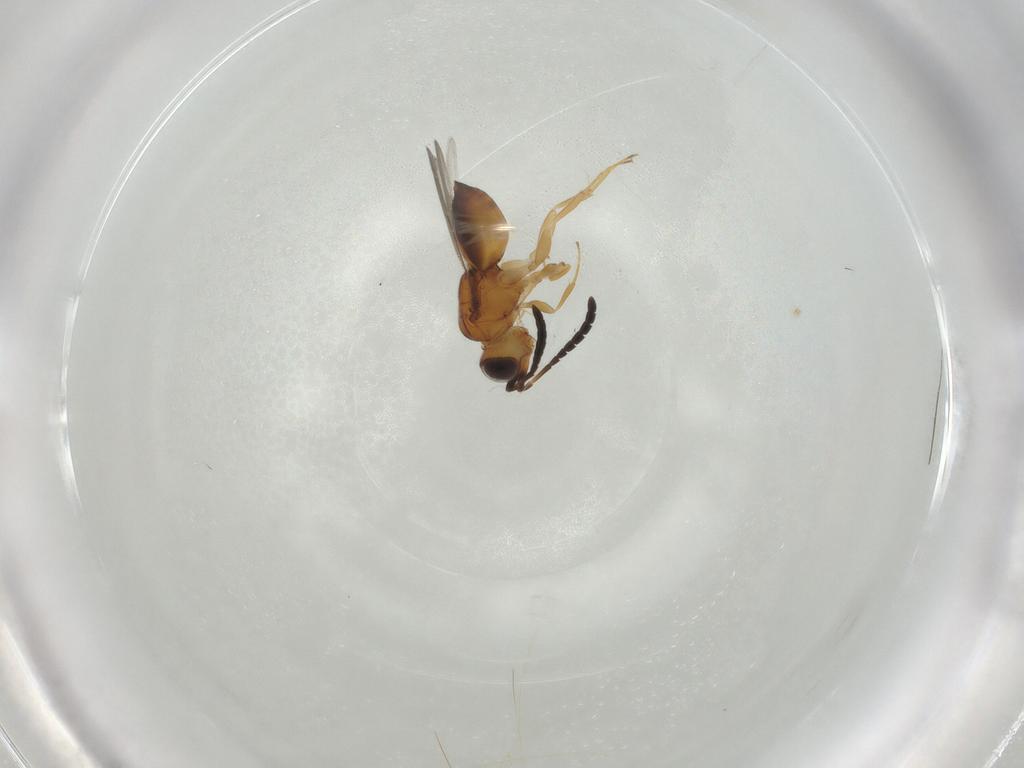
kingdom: Animalia
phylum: Arthropoda
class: Insecta
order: Diptera
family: Chironomidae
